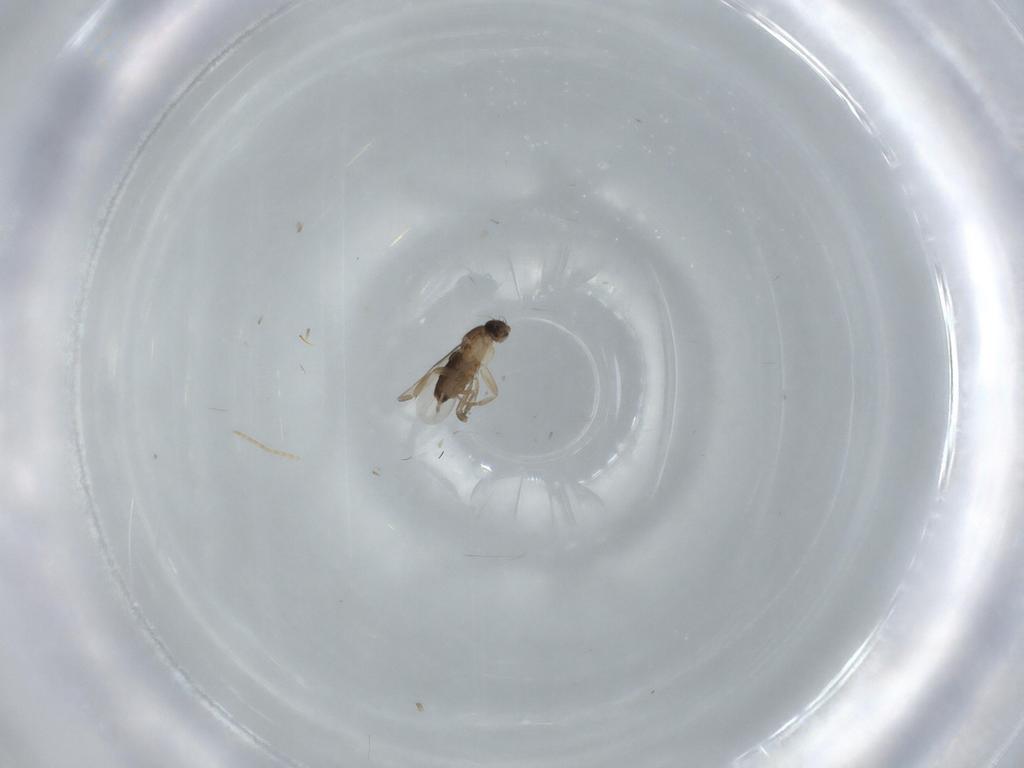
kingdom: Animalia
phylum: Arthropoda
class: Insecta
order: Diptera
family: Phoridae
